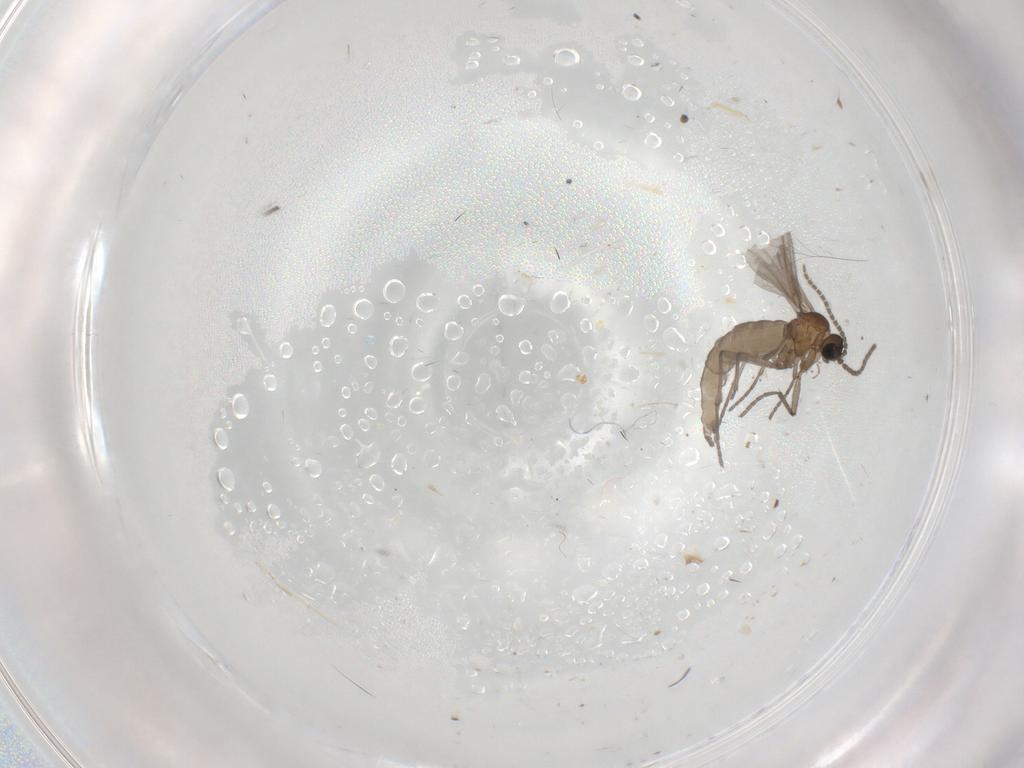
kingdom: Animalia
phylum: Arthropoda
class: Insecta
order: Diptera
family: Sciaridae
